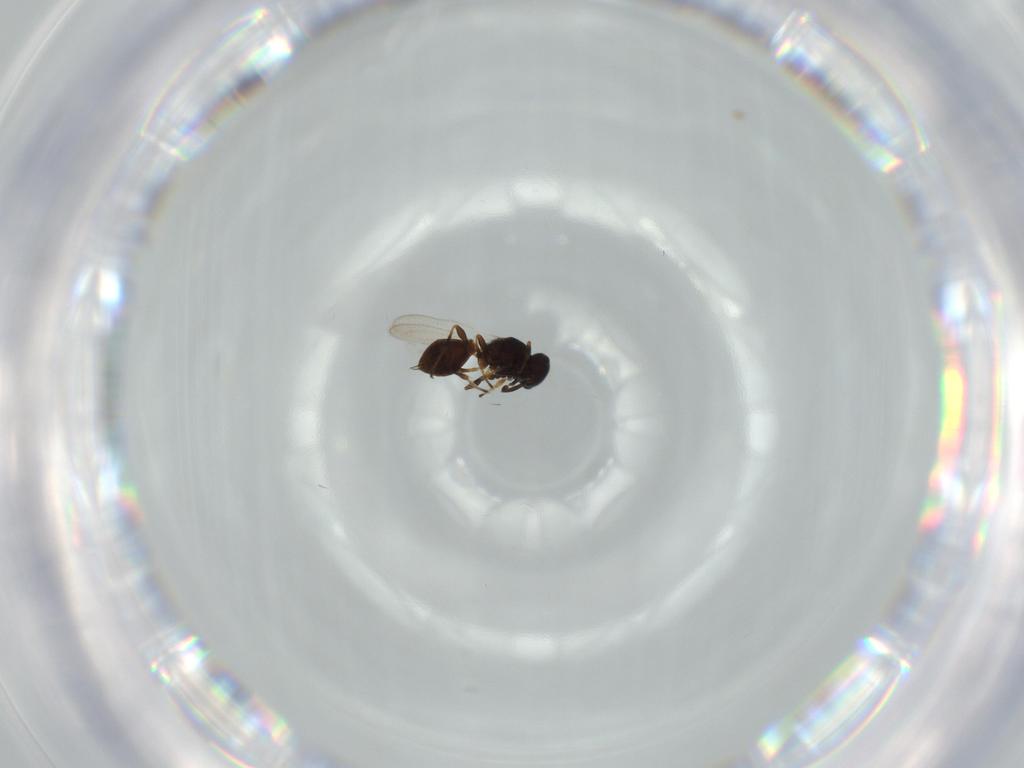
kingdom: Animalia
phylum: Arthropoda
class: Insecta
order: Hymenoptera
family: Platygastridae
